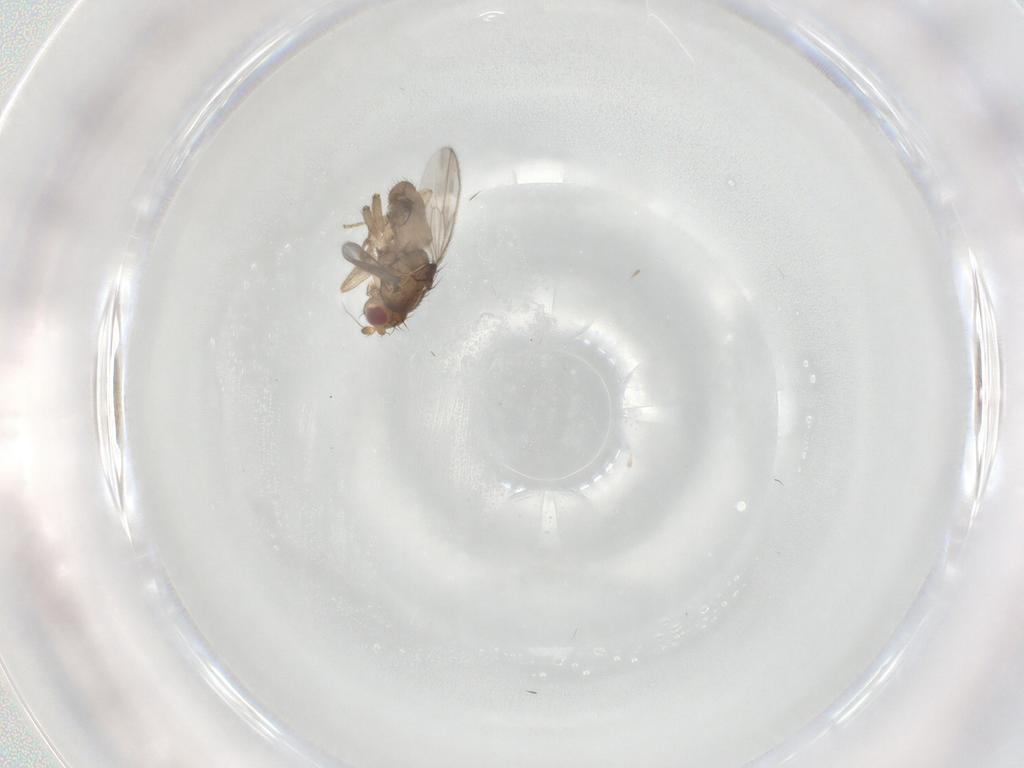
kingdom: Animalia
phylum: Arthropoda
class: Insecta
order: Diptera
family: Sphaeroceridae
